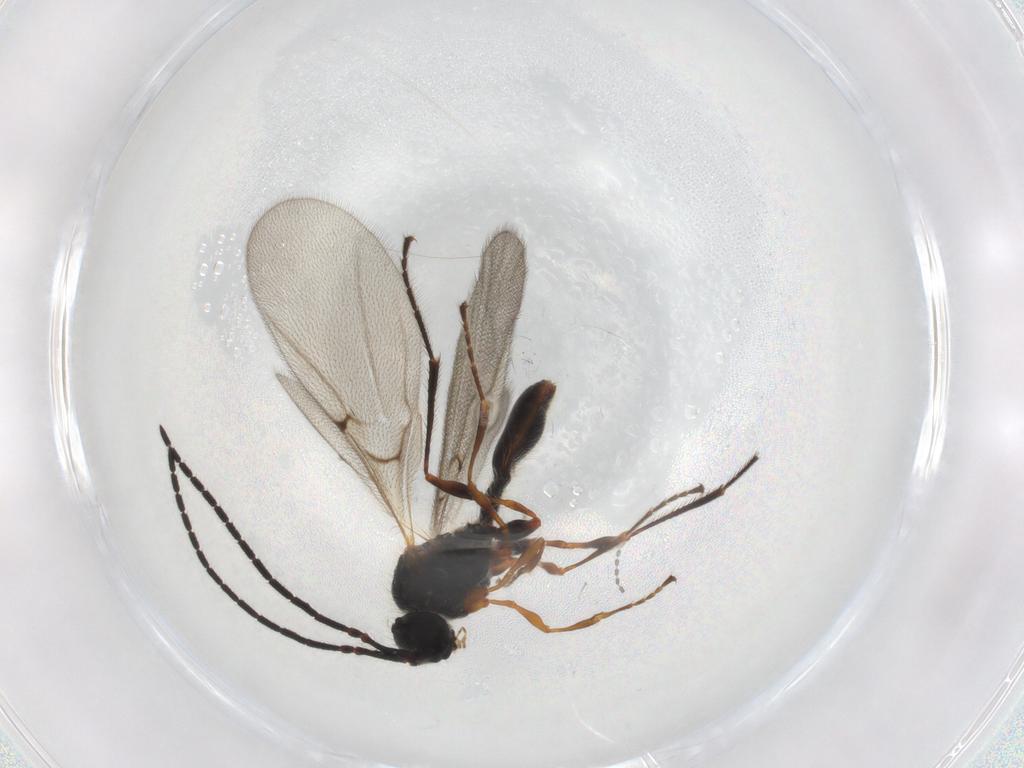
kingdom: Animalia
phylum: Arthropoda
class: Insecta
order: Hymenoptera
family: Diapriidae
